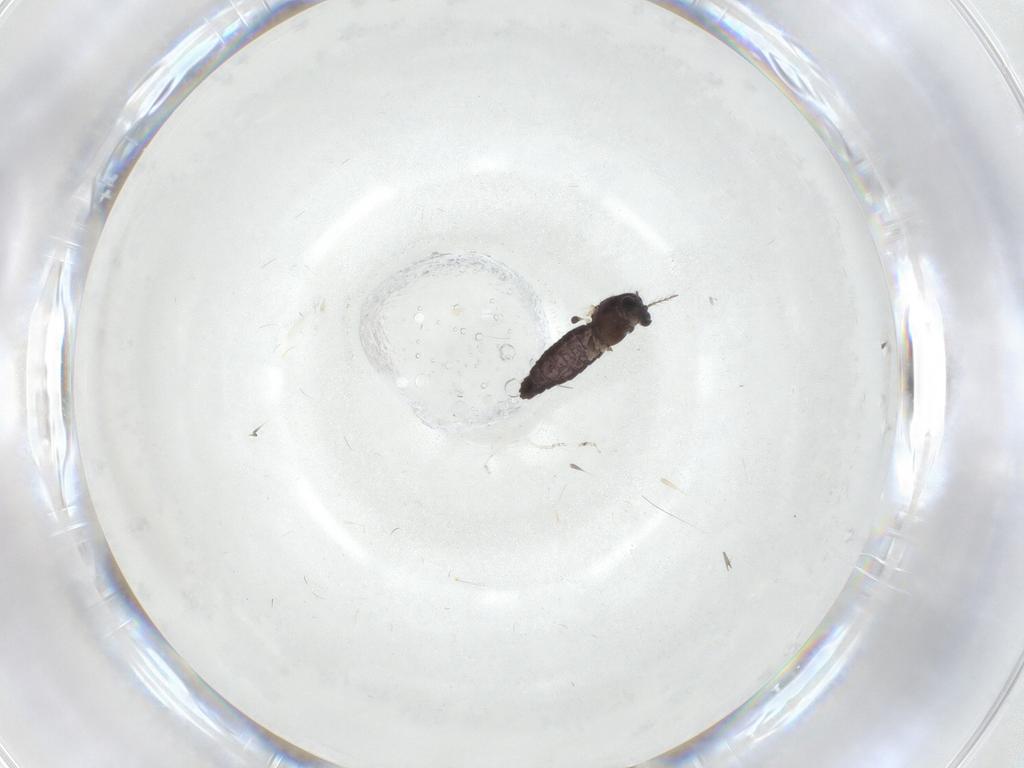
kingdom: Animalia
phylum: Arthropoda
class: Insecta
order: Diptera
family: Chironomidae
